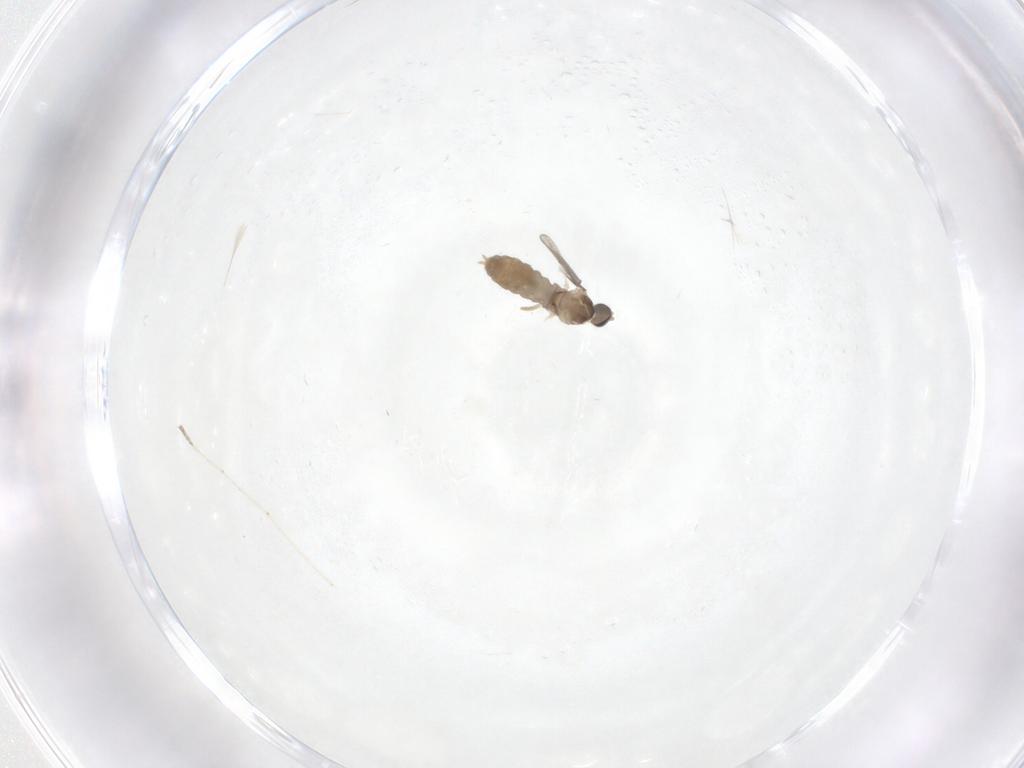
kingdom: Animalia
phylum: Arthropoda
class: Insecta
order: Diptera
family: Cecidomyiidae
